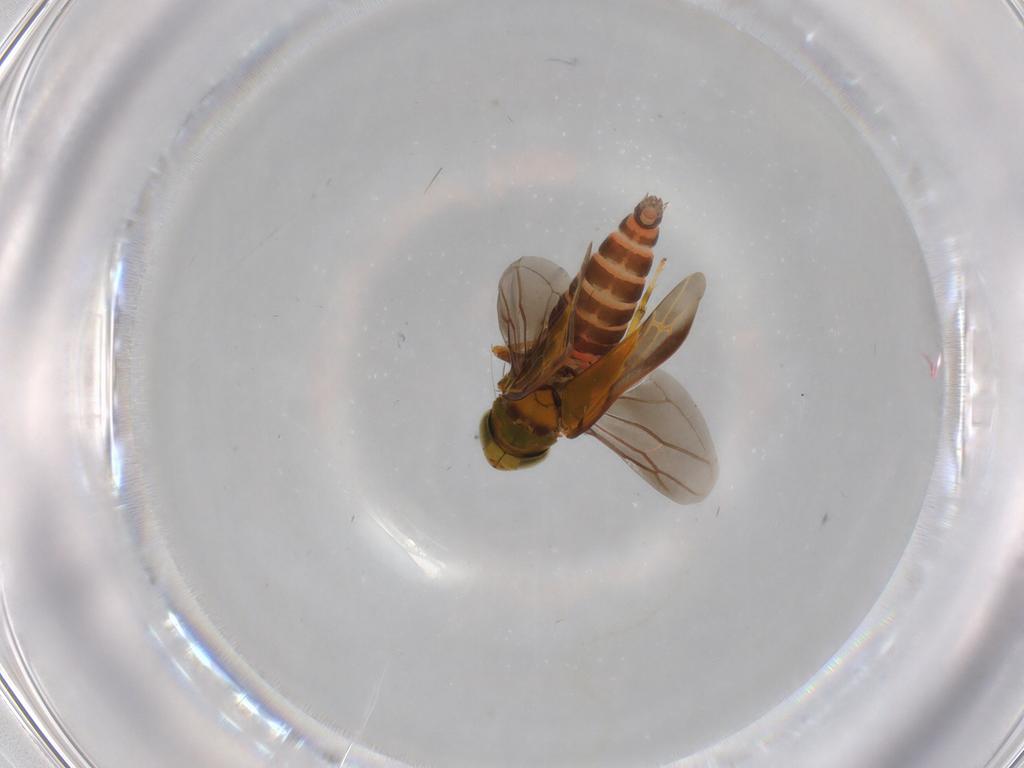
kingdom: Animalia
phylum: Arthropoda
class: Insecta
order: Hemiptera
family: Cicadellidae
